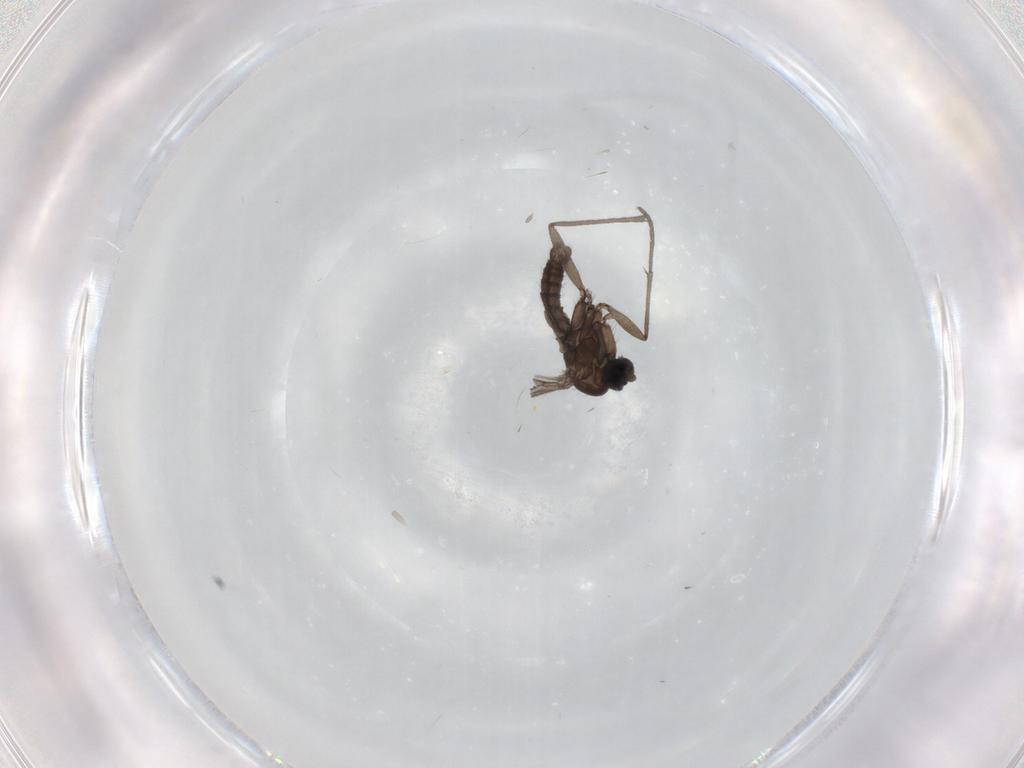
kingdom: Animalia
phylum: Arthropoda
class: Insecta
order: Diptera
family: Sciaridae
